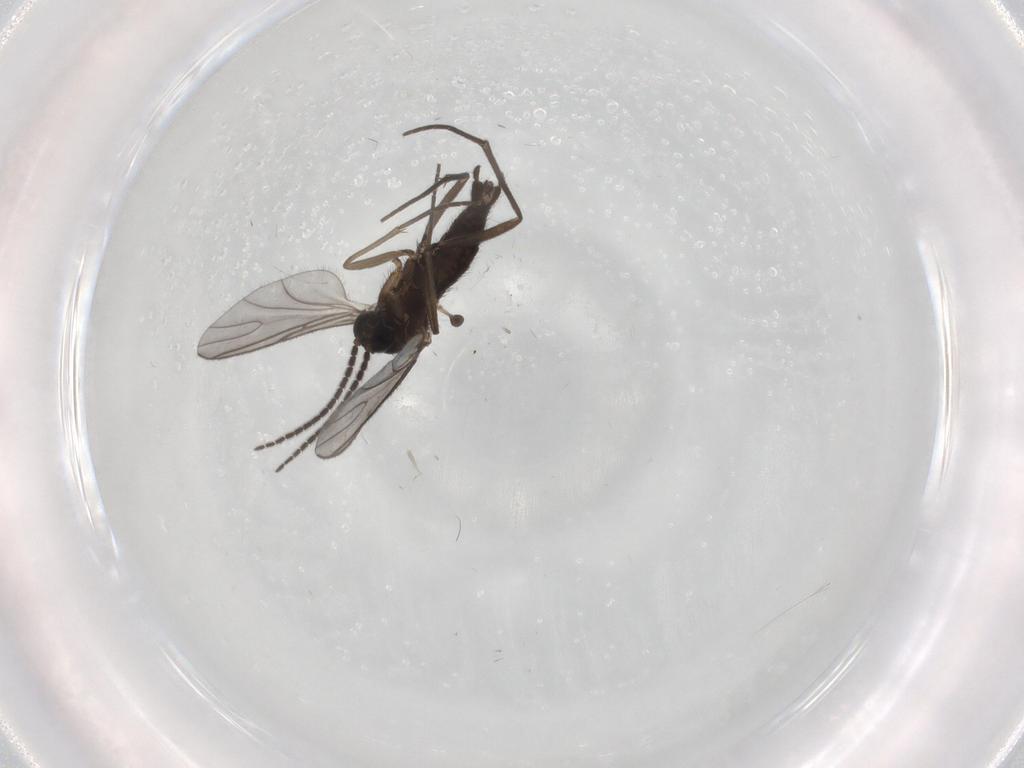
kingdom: Animalia
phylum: Arthropoda
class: Insecta
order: Diptera
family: Sciaridae
